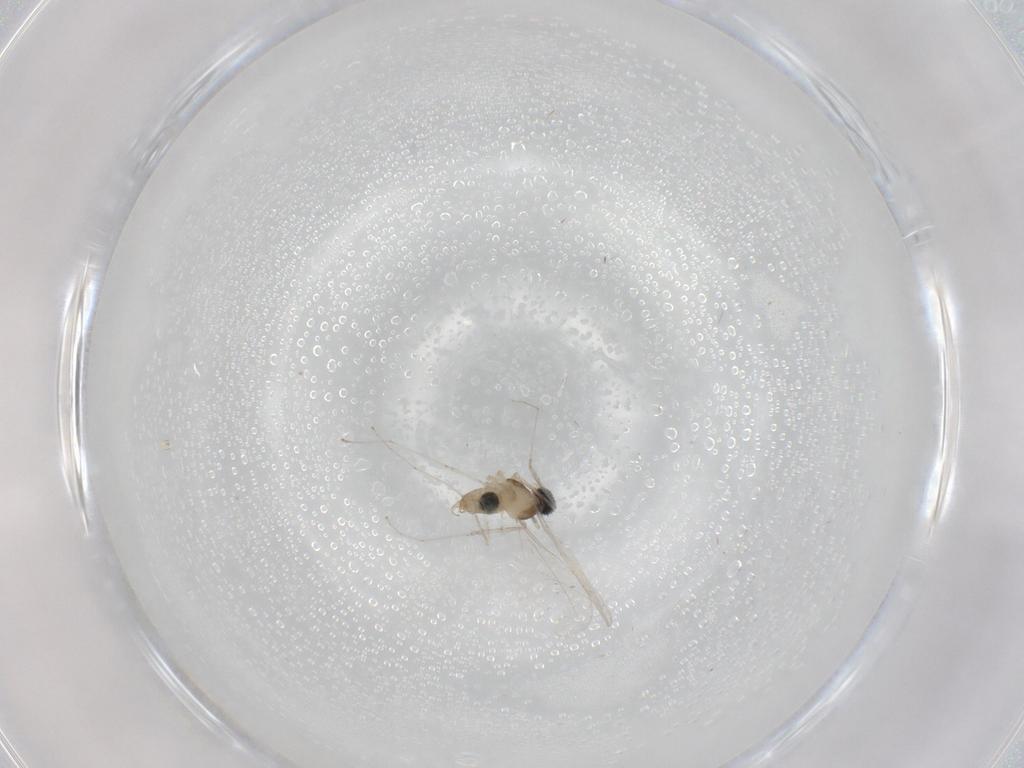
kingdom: Animalia
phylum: Arthropoda
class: Insecta
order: Diptera
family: Cecidomyiidae
